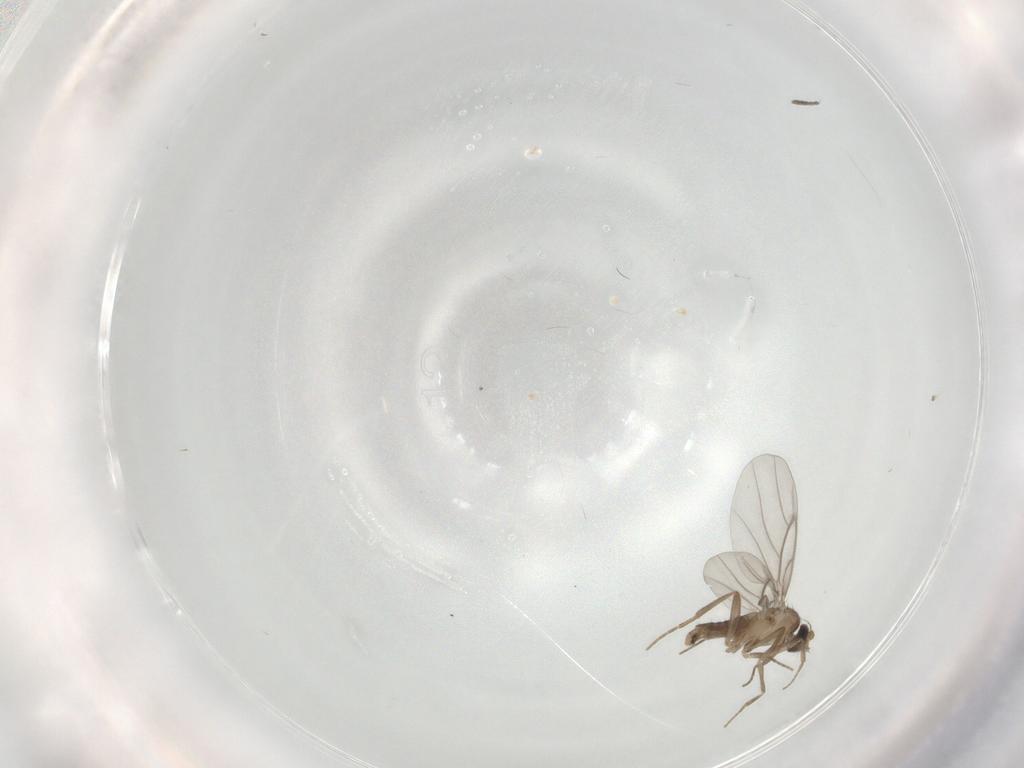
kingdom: Animalia
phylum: Arthropoda
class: Insecta
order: Diptera
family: Psychodidae
